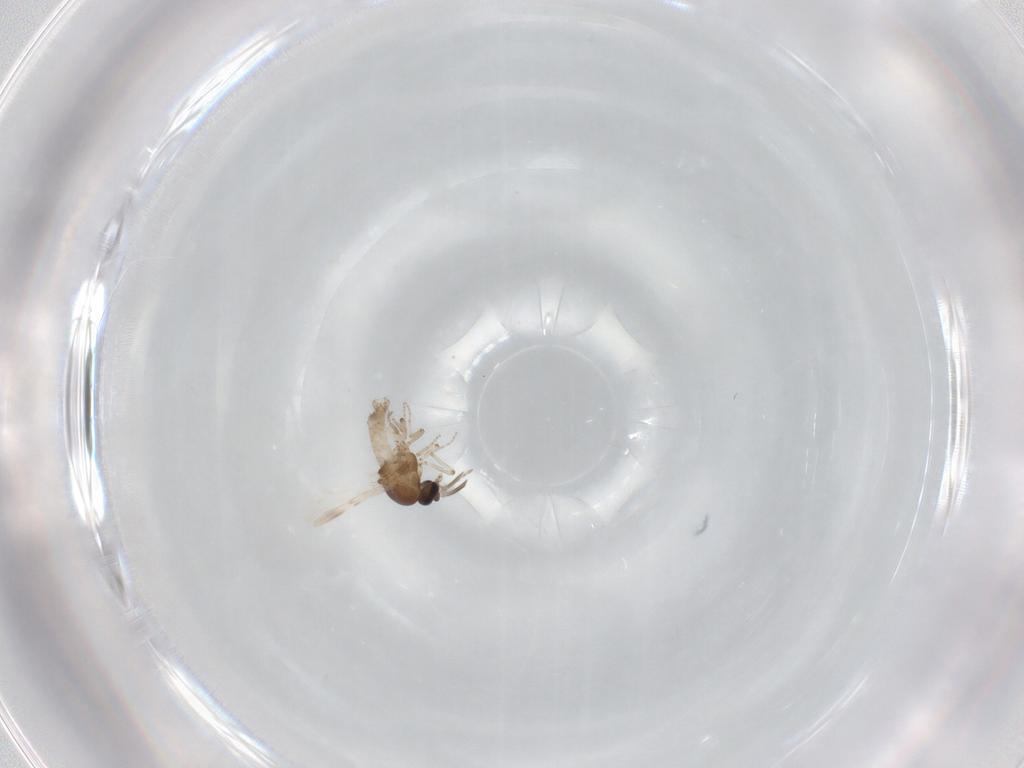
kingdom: Animalia
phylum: Arthropoda
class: Insecta
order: Diptera
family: Ceratopogonidae
